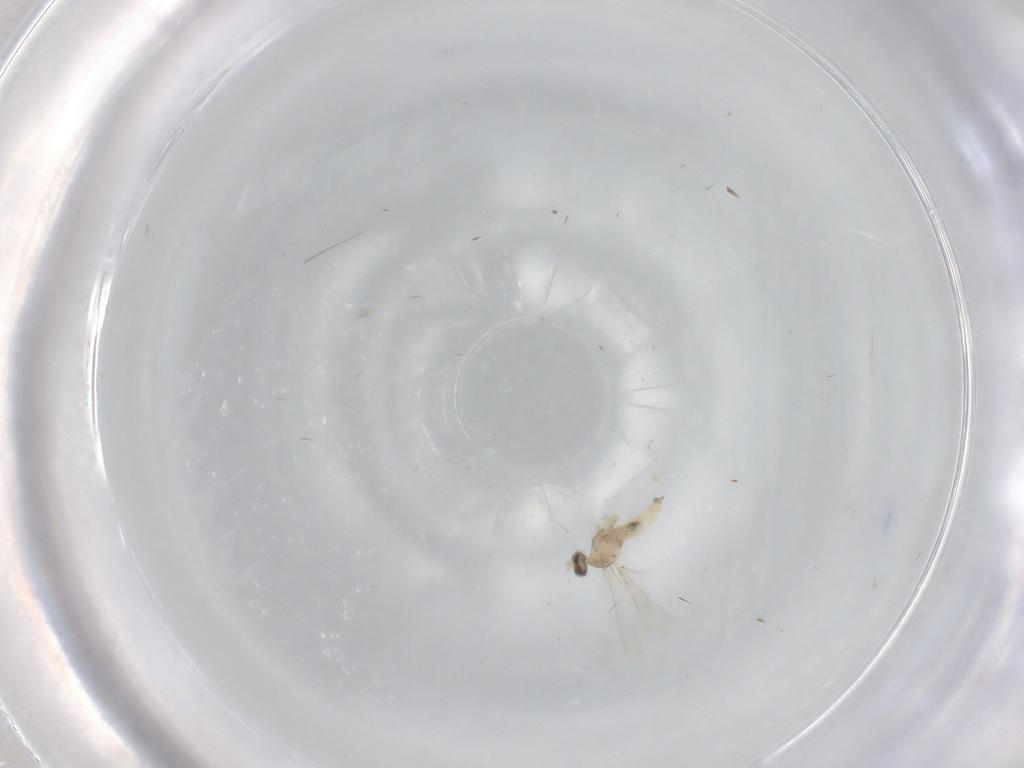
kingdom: Animalia
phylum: Arthropoda
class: Insecta
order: Diptera
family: Cecidomyiidae
